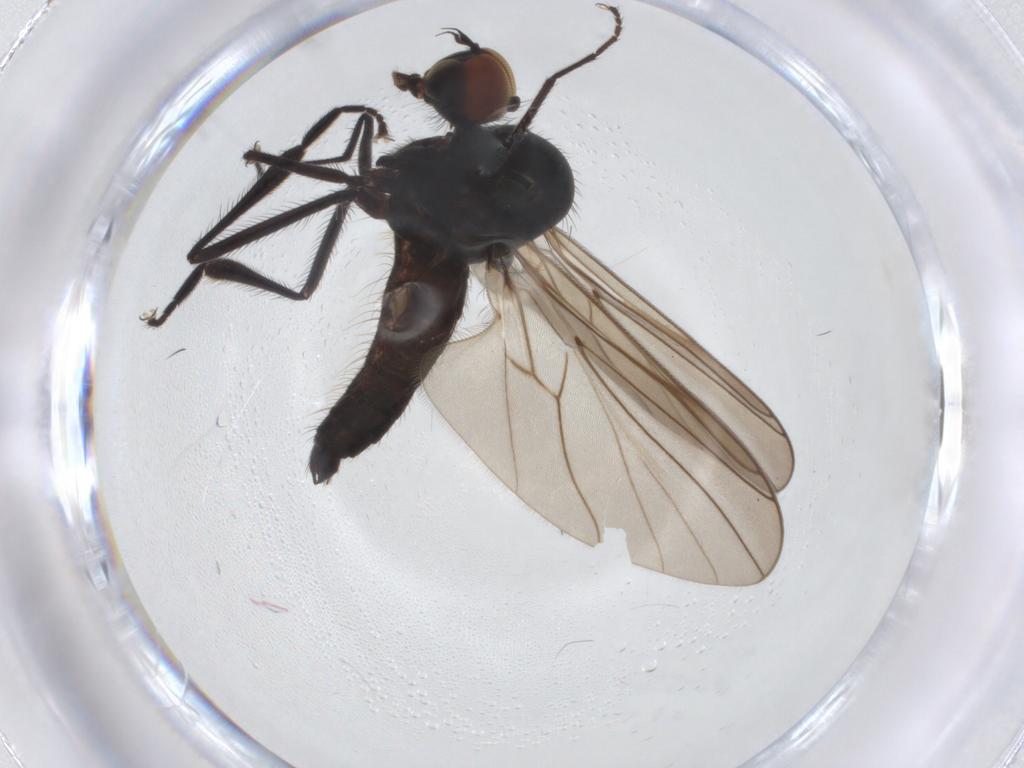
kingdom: Animalia
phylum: Arthropoda
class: Insecta
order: Diptera
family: Hybotidae
